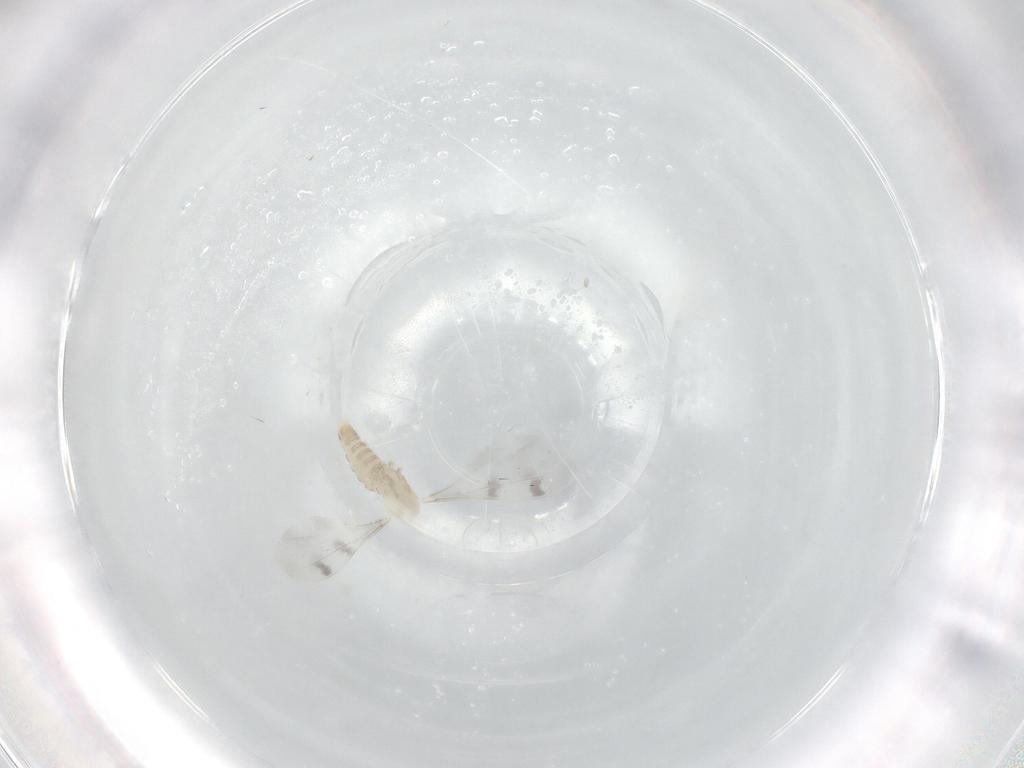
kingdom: Animalia
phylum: Arthropoda
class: Insecta
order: Diptera
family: Cecidomyiidae
